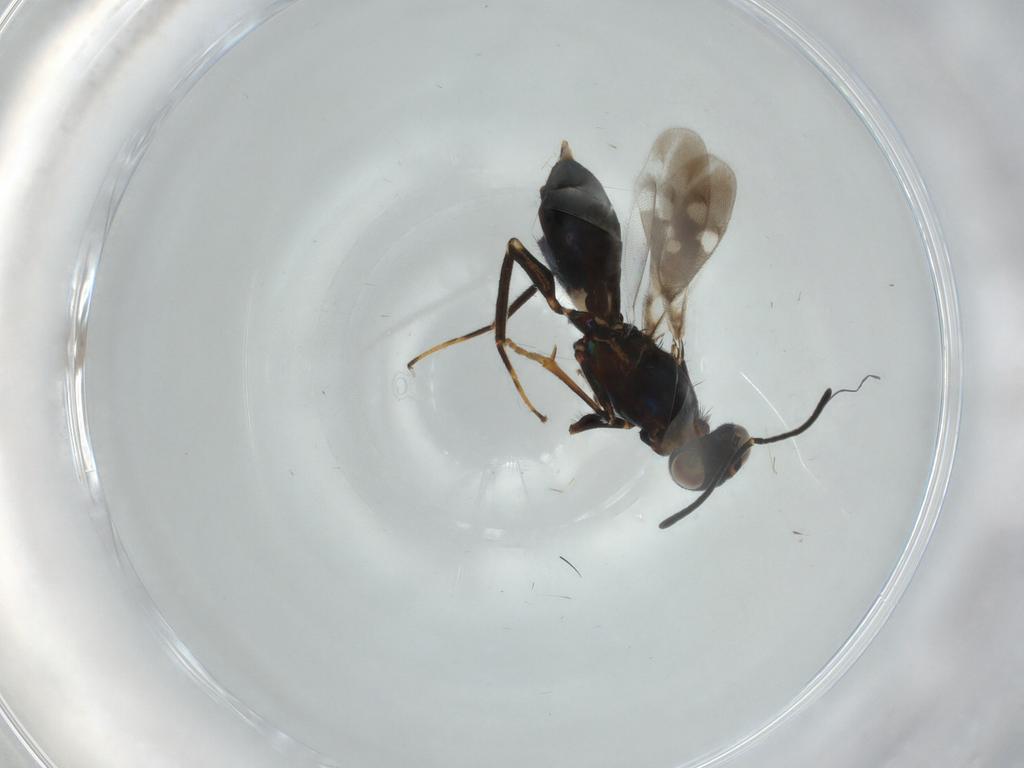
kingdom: Animalia
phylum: Arthropoda
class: Insecta
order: Hymenoptera
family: Eupelmidae
